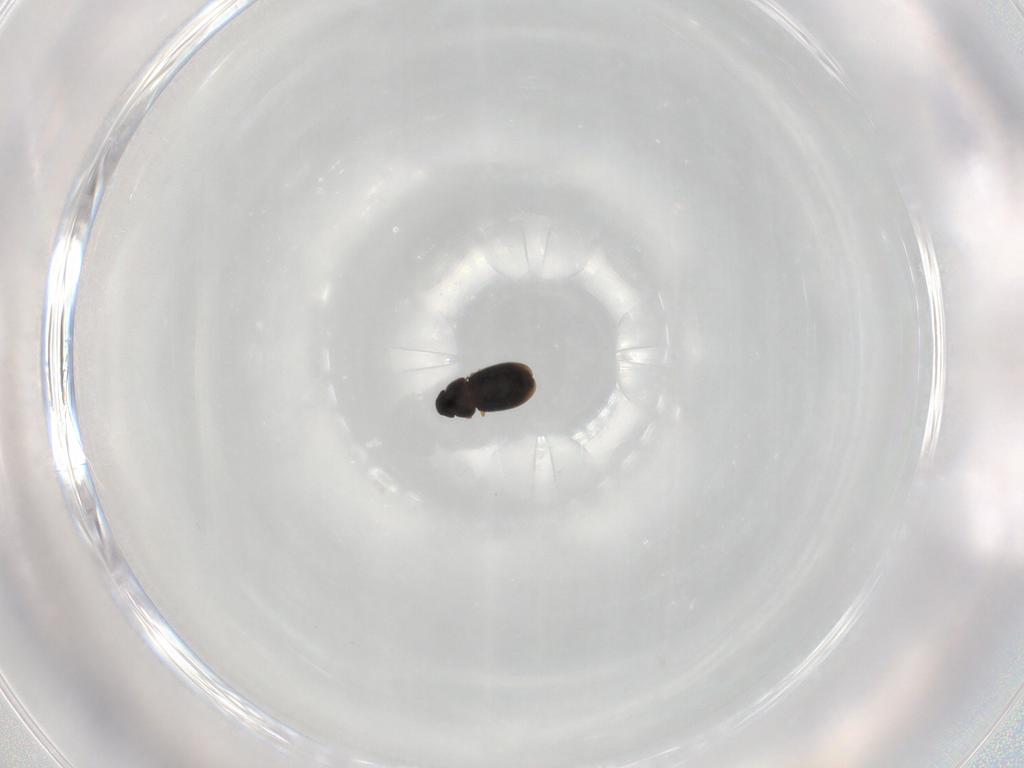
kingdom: Animalia
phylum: Arthropoda
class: Insecta
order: Coleoptera
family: Ptiliidae
